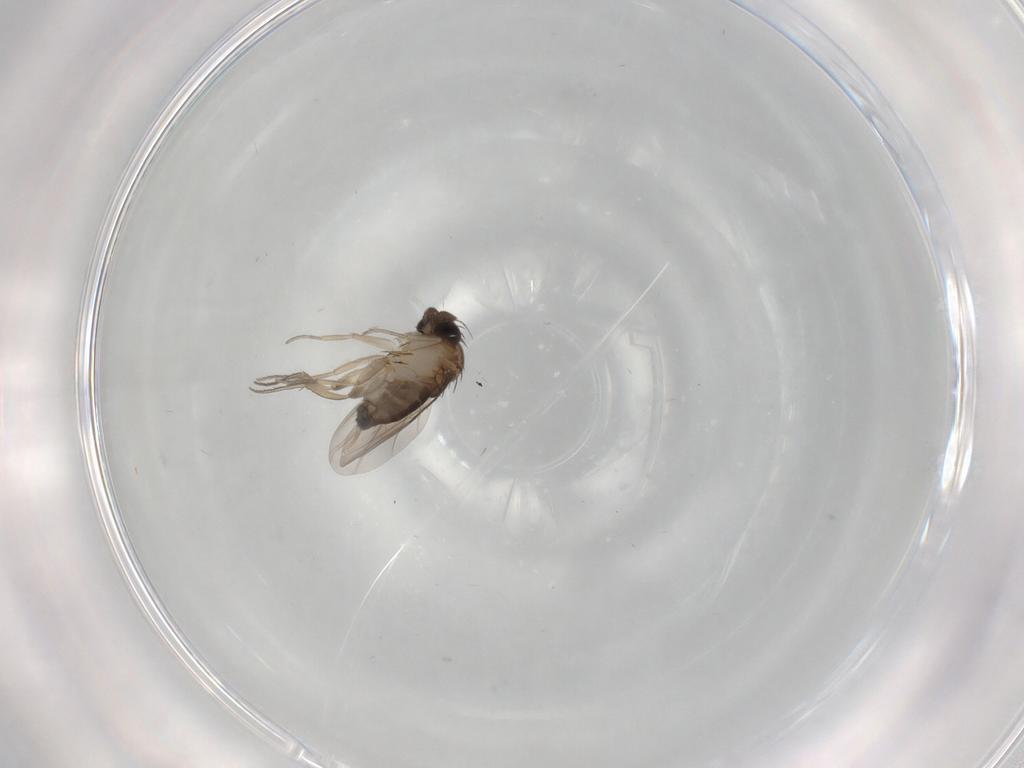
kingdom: Animalia
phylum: Arthropoda
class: Insecta
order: Diptera
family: Phoridae
